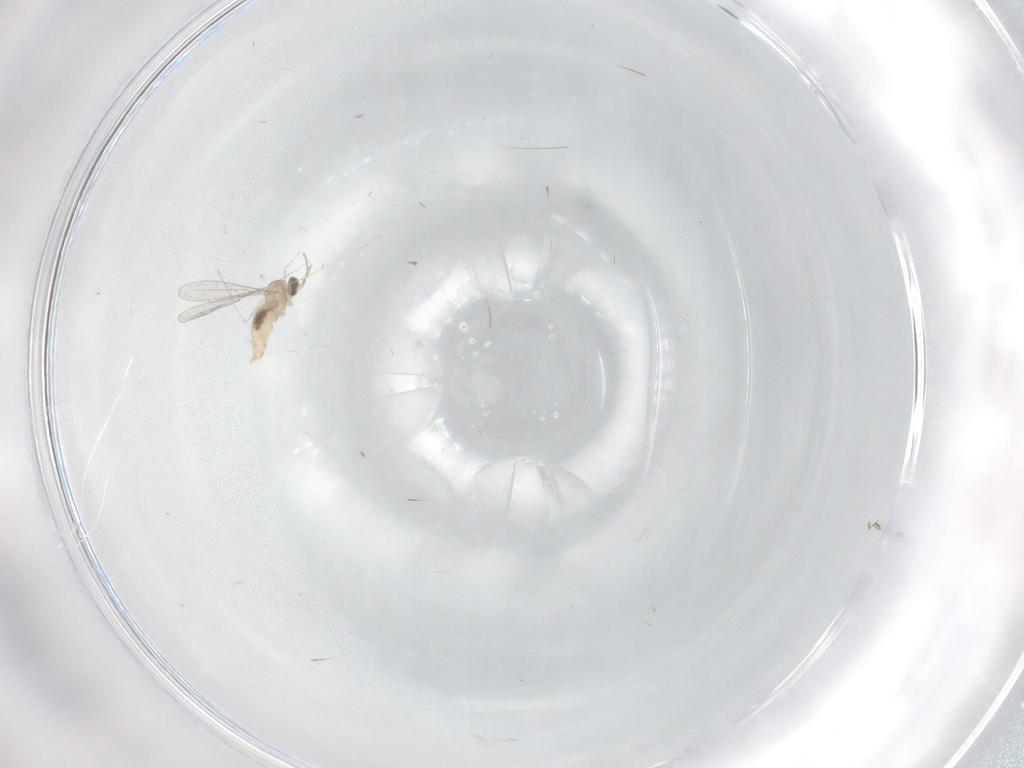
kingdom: Animalia
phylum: Arthropoda
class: Insecta
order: Diptera
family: Cecidomyiidae
